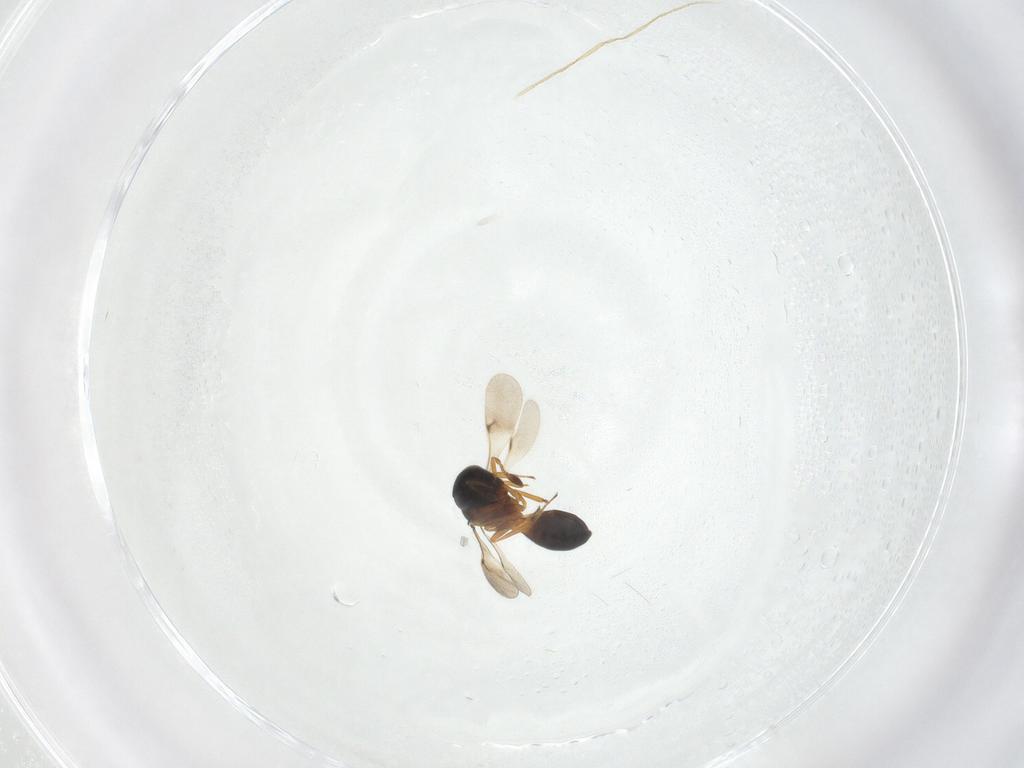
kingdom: Animalia
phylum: Arthropoda
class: Insecta
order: Hymenoptera
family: Scelionidae
